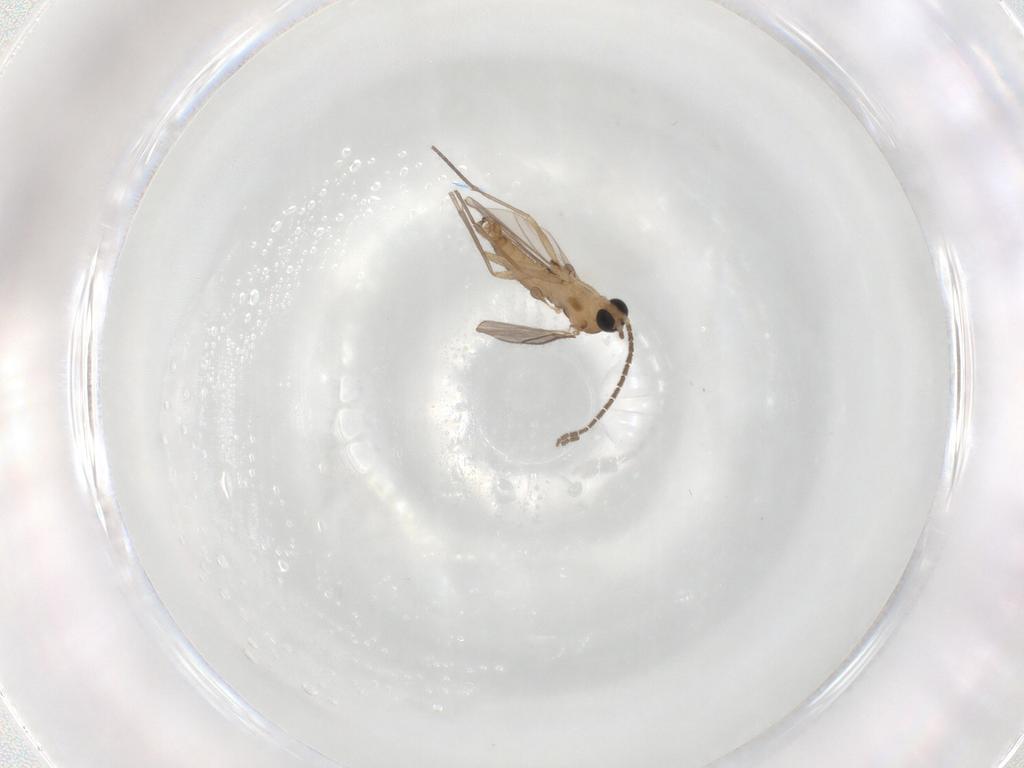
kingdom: Animalia
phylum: Arthropoda
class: Insecta
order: Diptera
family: Sciaridae
